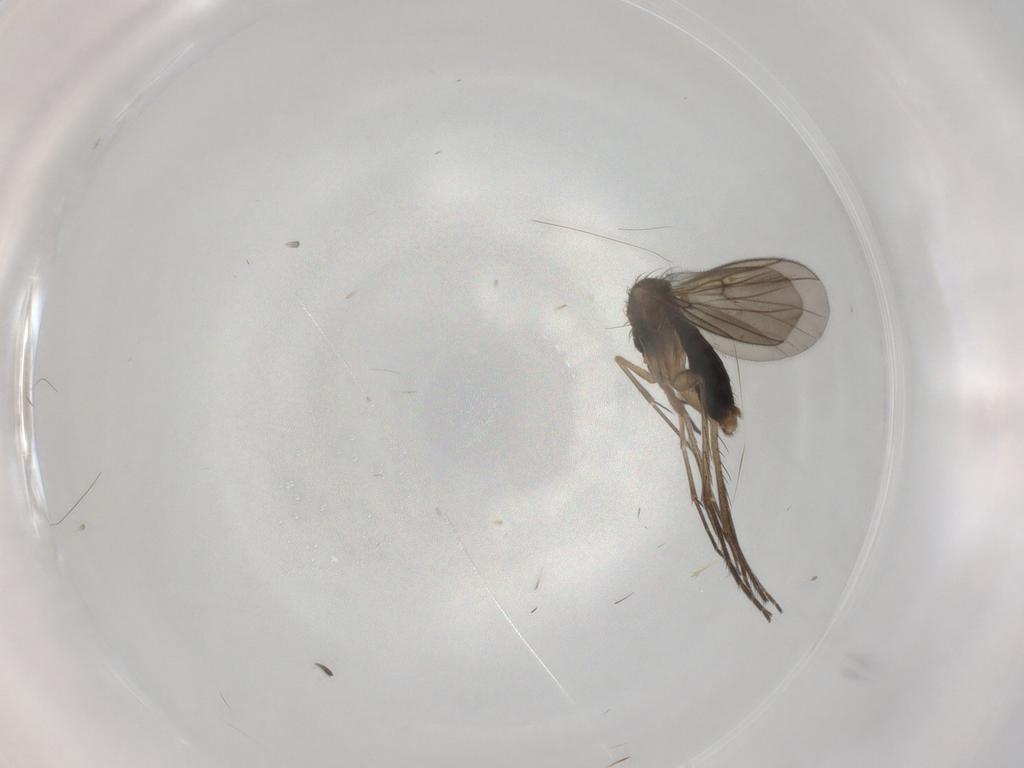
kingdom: Animalia
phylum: Arthropoda
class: Insecta
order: Diptera
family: Mycetophilidae
